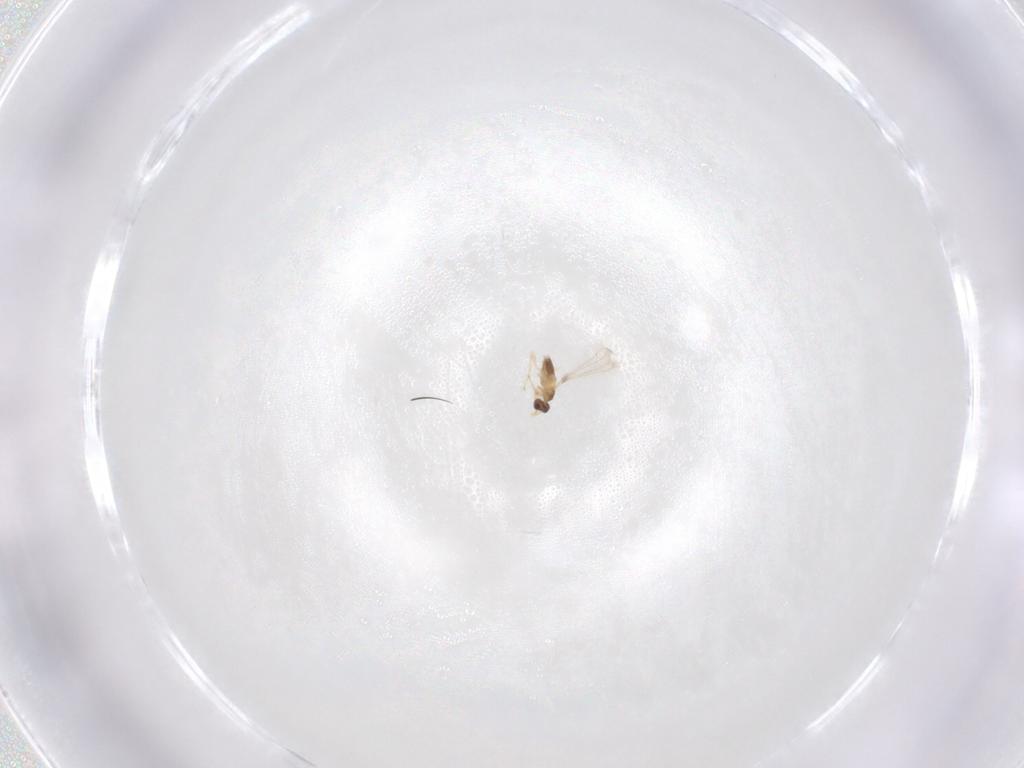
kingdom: Animalia
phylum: Arthropoda
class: Insecta
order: Hymenoptera
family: Mymaridae
